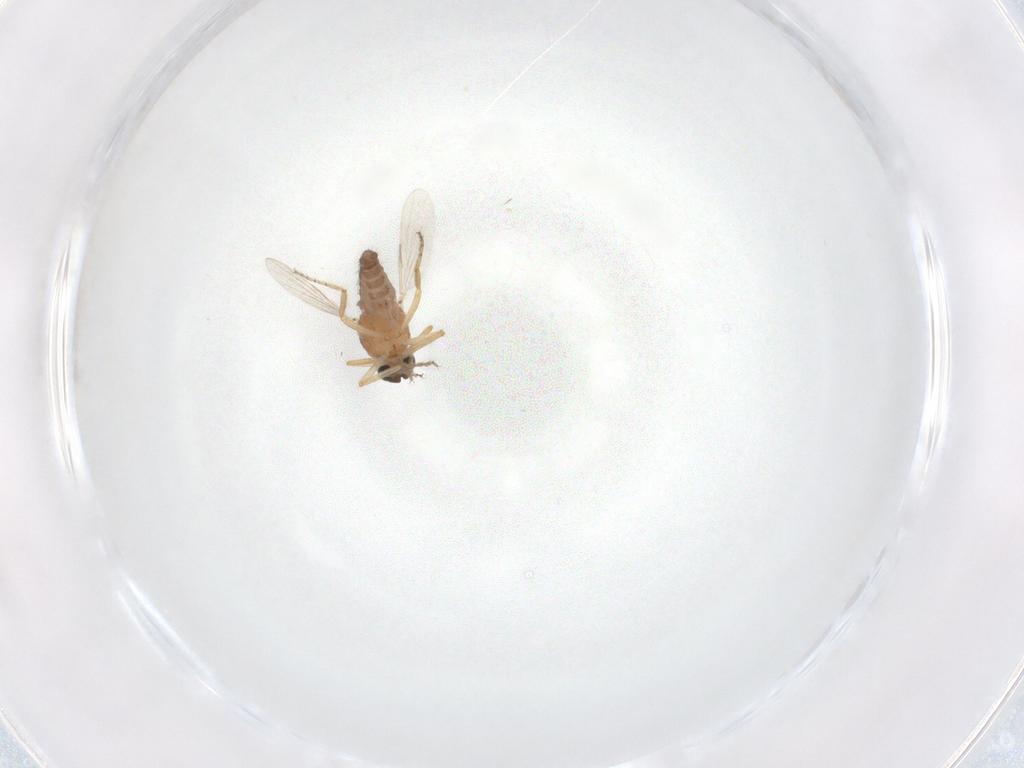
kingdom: Animalia
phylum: Arthropoda
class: Insecta
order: Diptera
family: Ceratopogonidae
